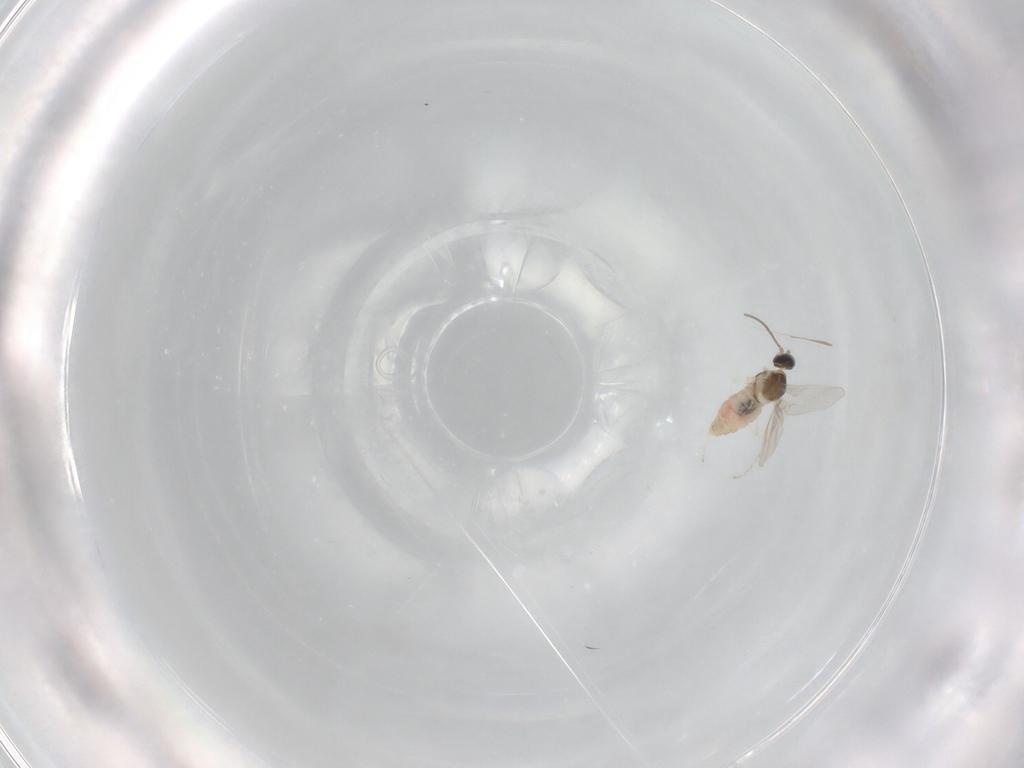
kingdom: Animalia
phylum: Arthropoda
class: Insecta
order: Diptera
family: Cecidomyiidae
